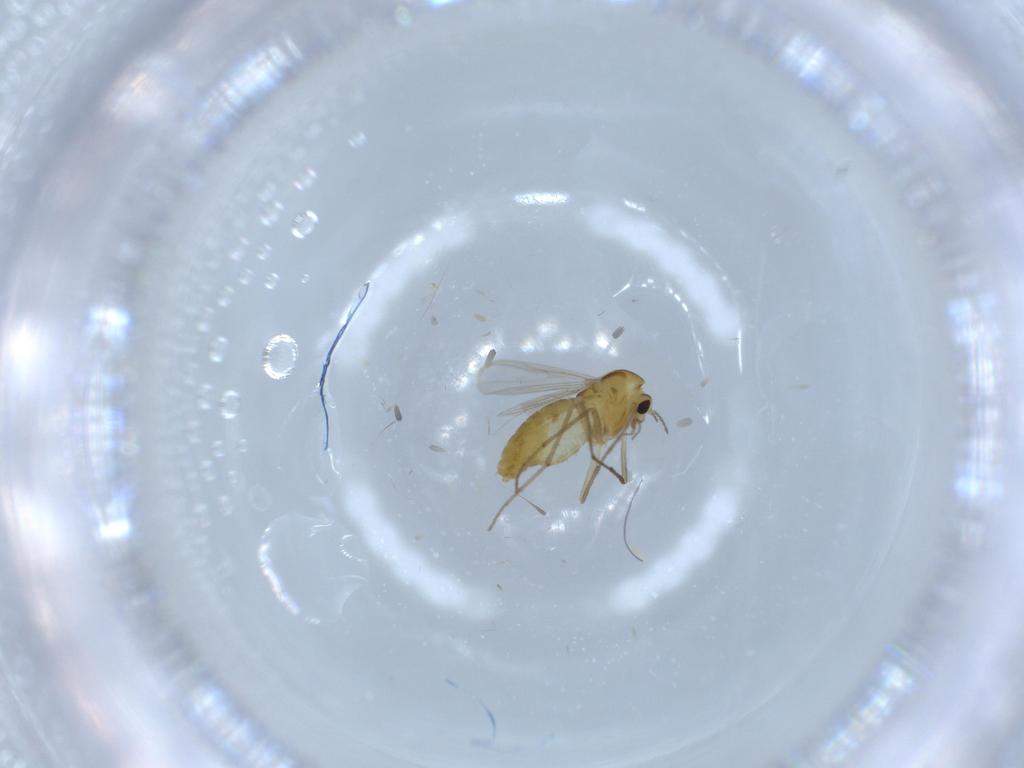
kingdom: Animalia
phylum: Arthropoda
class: Insecta
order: Diptera
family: Chironomidae
